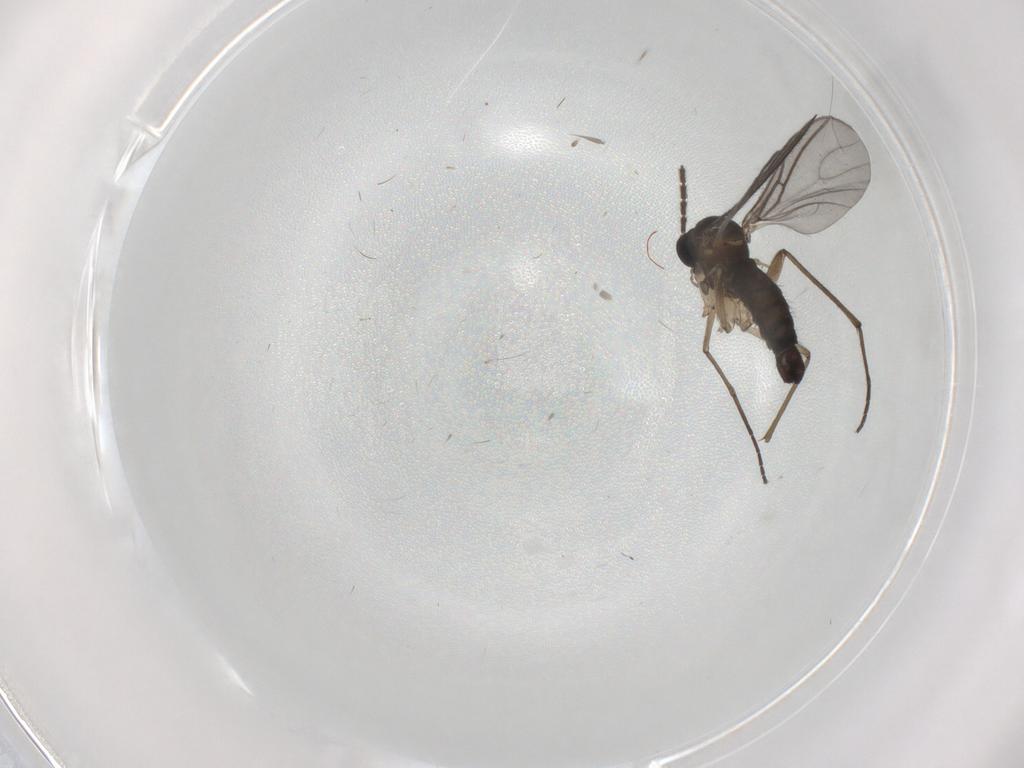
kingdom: Animalia
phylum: Arthropoda
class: Insecta
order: Diptera
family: Sciaridae
